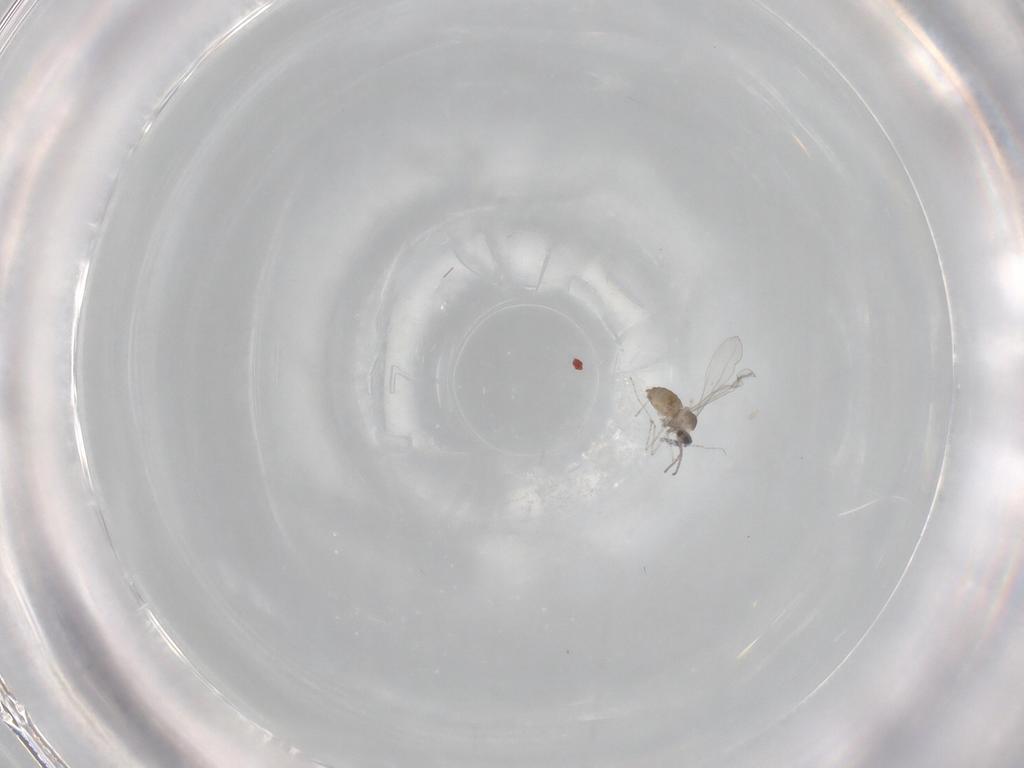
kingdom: Animalia
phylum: Arthropoda
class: Insecta
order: Diptera
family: Cecidomyiidae
